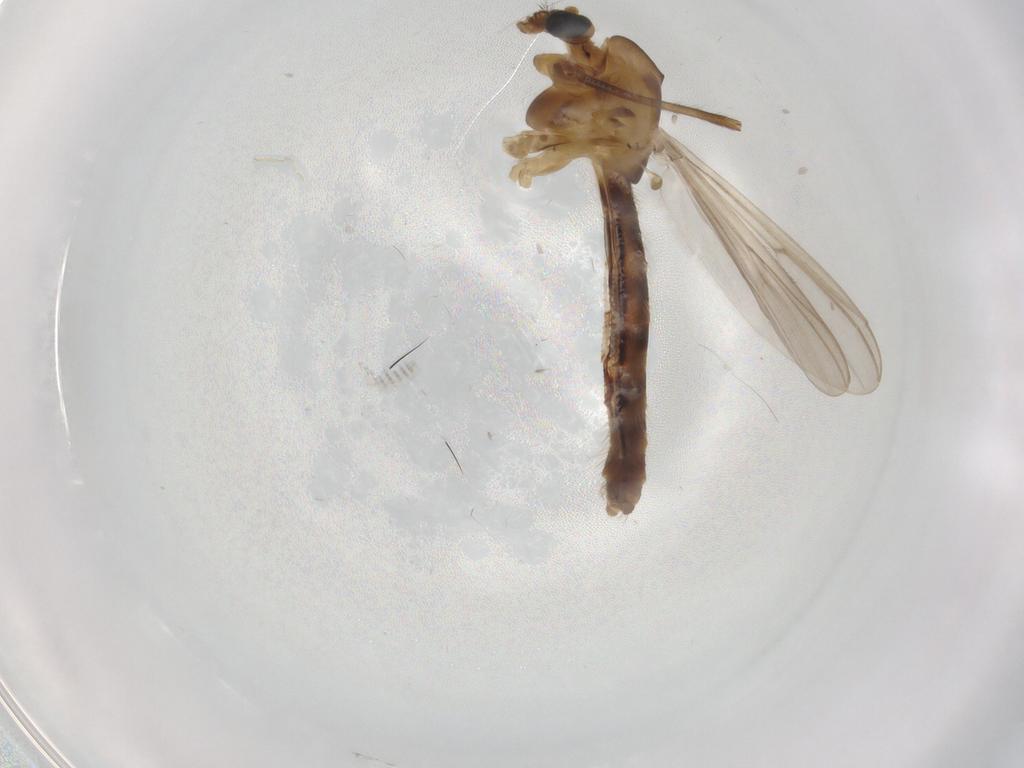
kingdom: Animalia
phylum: Arthropoda
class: Insecta
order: Diptera
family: Chironomidae
